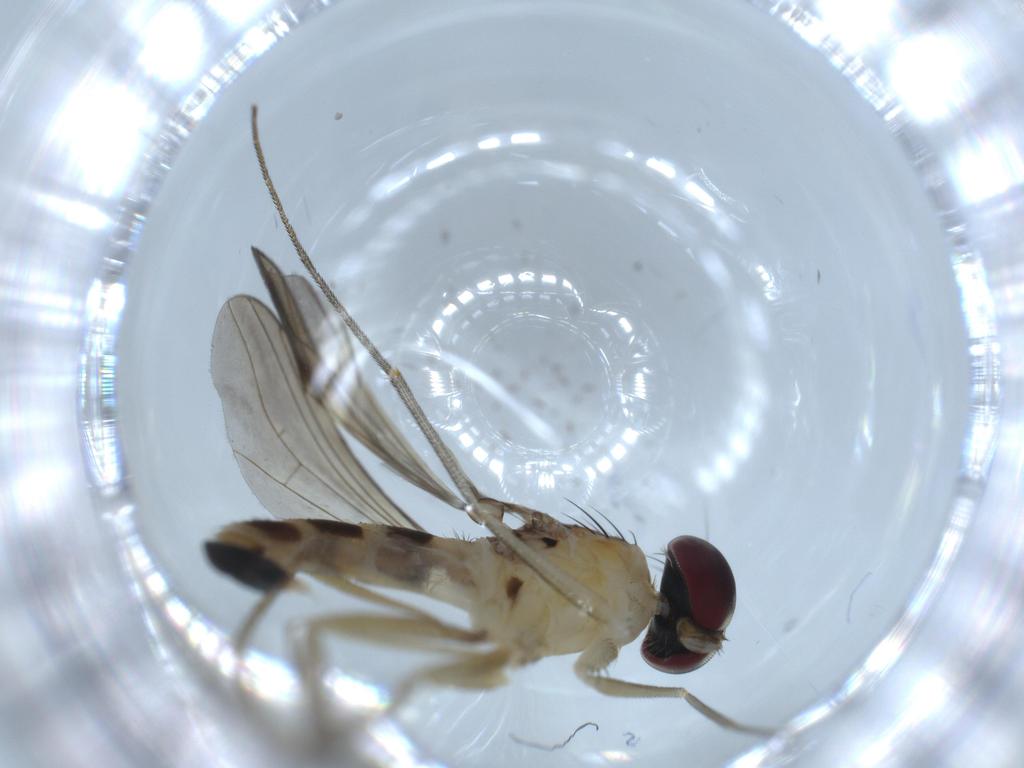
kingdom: Animalia
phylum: Arthropoda
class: Insecta
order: Diptera
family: Dolichopodidae
